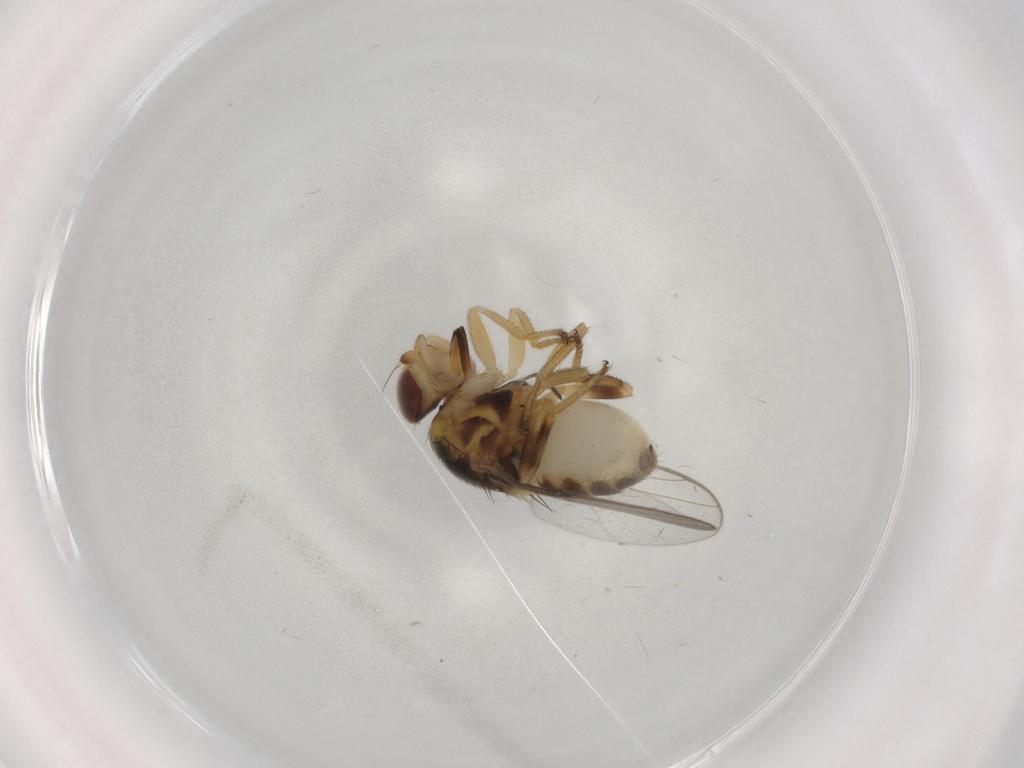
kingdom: Animalia
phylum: Arthropoda
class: Insecta
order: Diptera
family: Chloropidae
